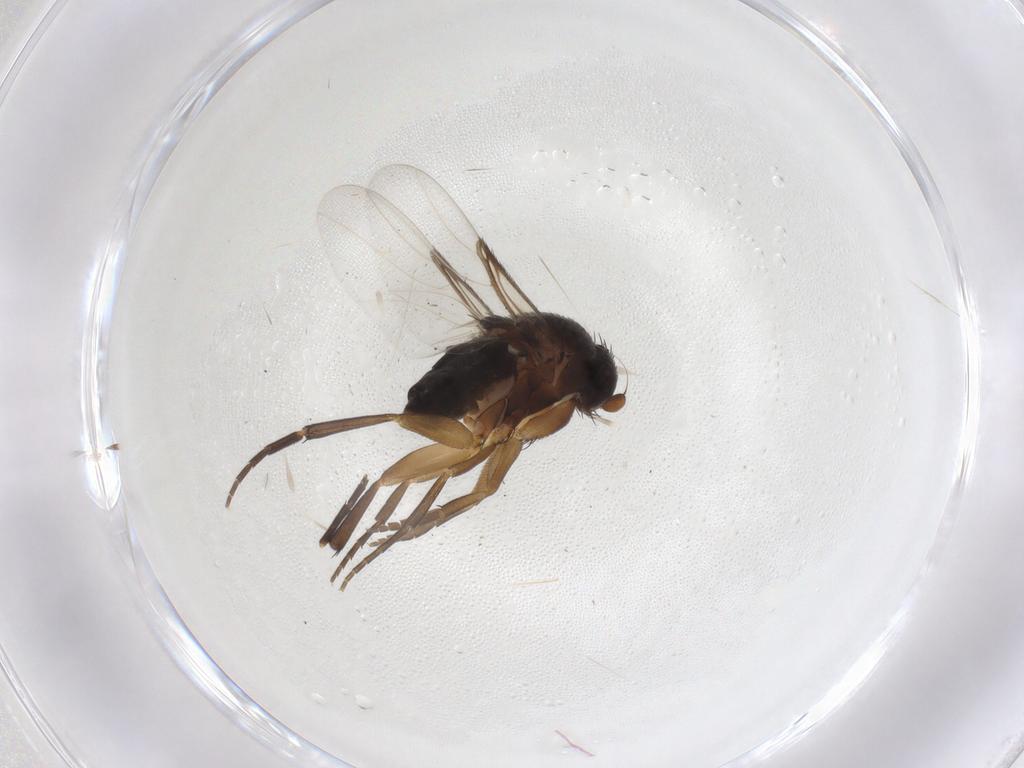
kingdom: Animalia
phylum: Arthropoda
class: Insecta
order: Diptera
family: Phoridae
